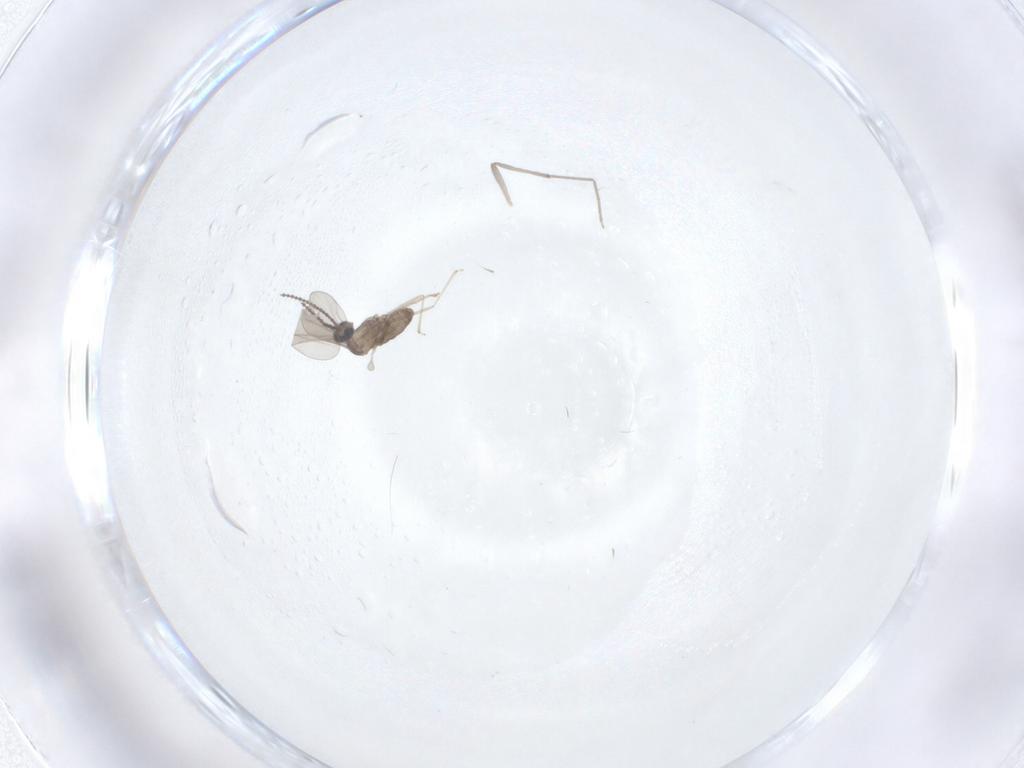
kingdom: Animalia
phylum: Arthropoda
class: Insecta
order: Diptera
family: Cecidomyiidae
